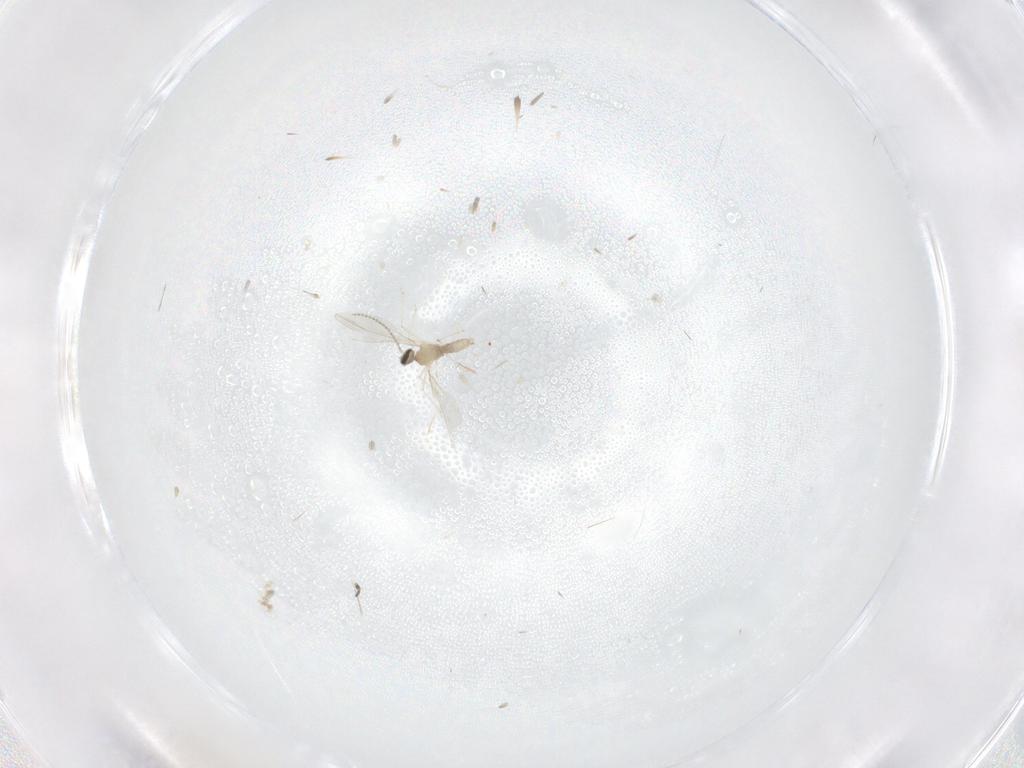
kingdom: Animalia
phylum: Arthropoda
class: Insecta
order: Diptera
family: Limoniidae
